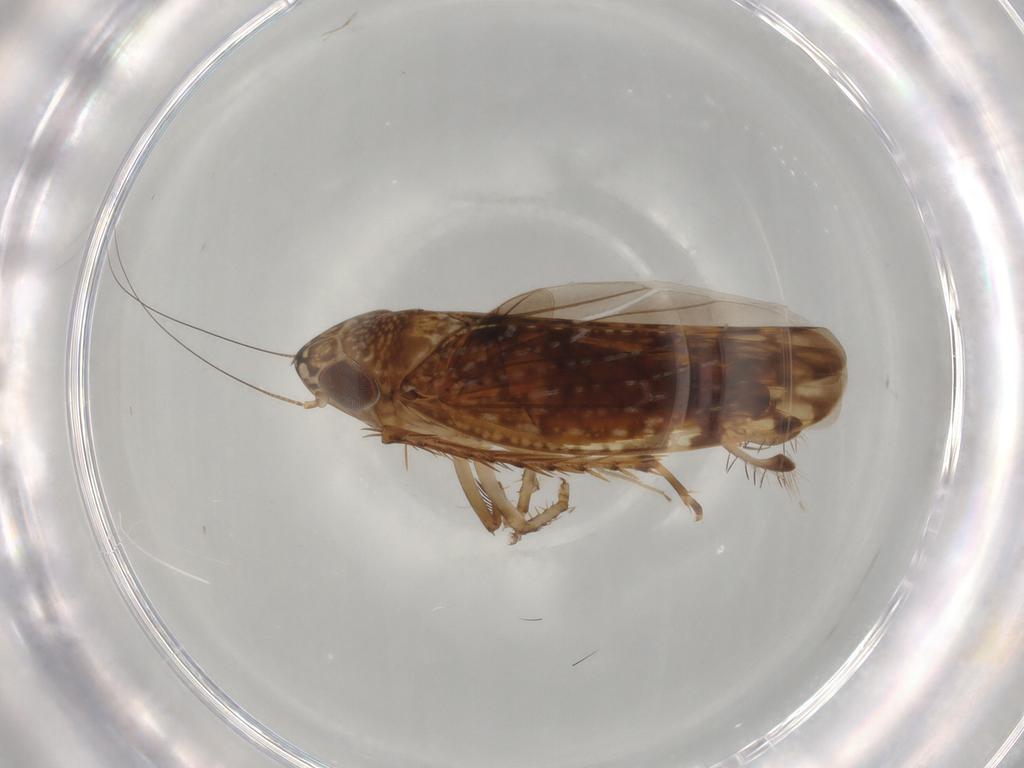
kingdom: Animalia
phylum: Arthropoda
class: Insecta
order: Hemiptera
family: Cicadellidae
